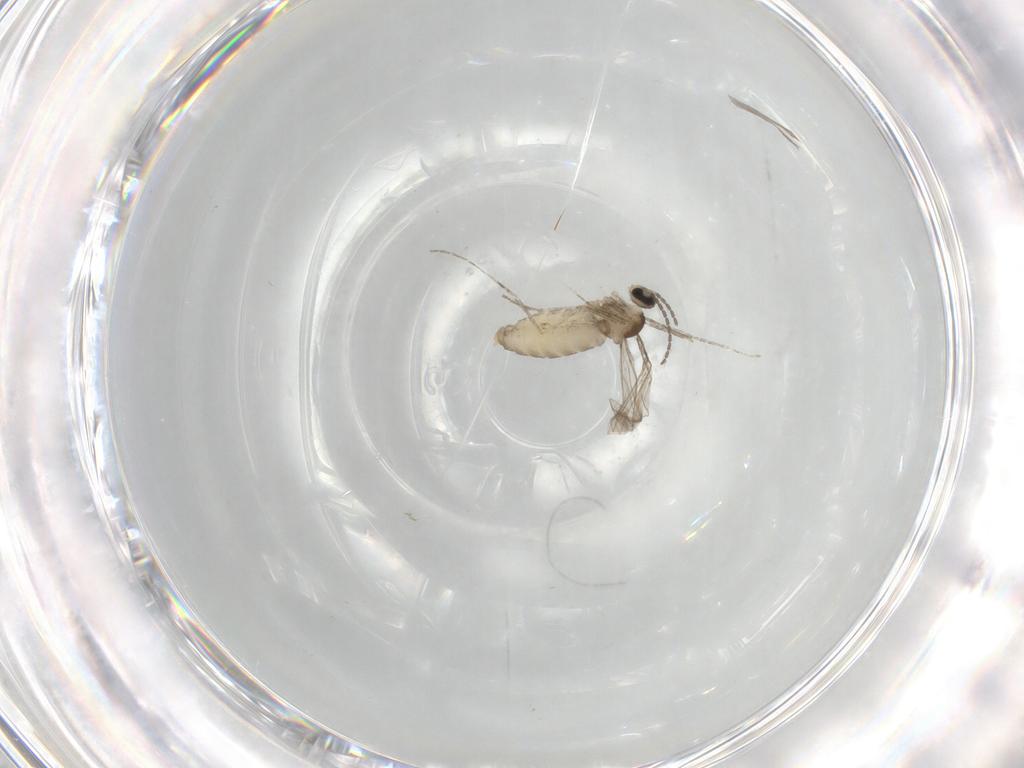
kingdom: Animalia
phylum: Arthropoda
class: Insecta
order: Diptera
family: Cecidomyiidae
